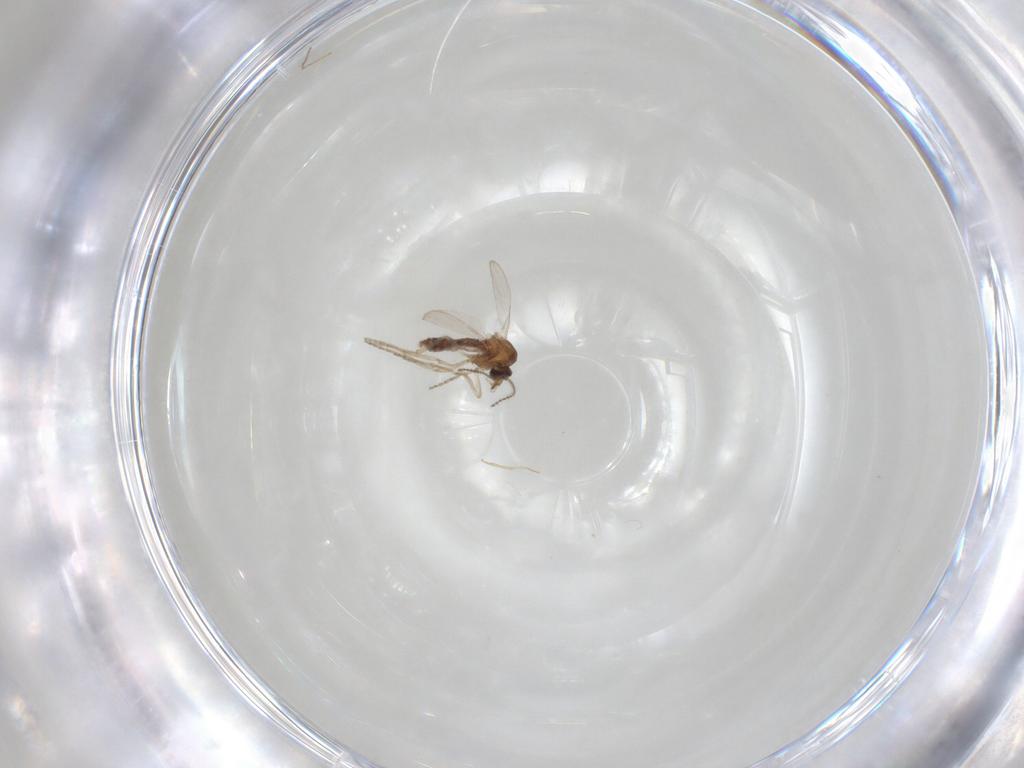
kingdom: Animalia
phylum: Arthropoda
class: Insecta
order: Diptera
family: Ceratopogonidae
